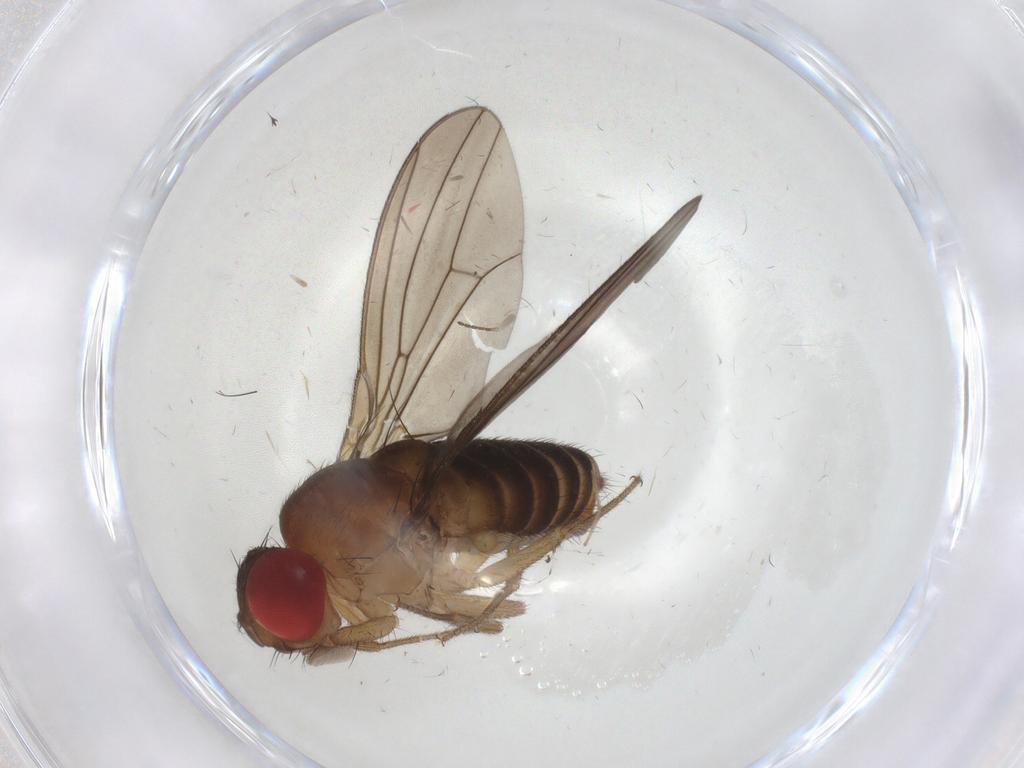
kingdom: Animalia
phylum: Arthropoda
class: Insecta
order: Diptera
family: Drosophilidae
